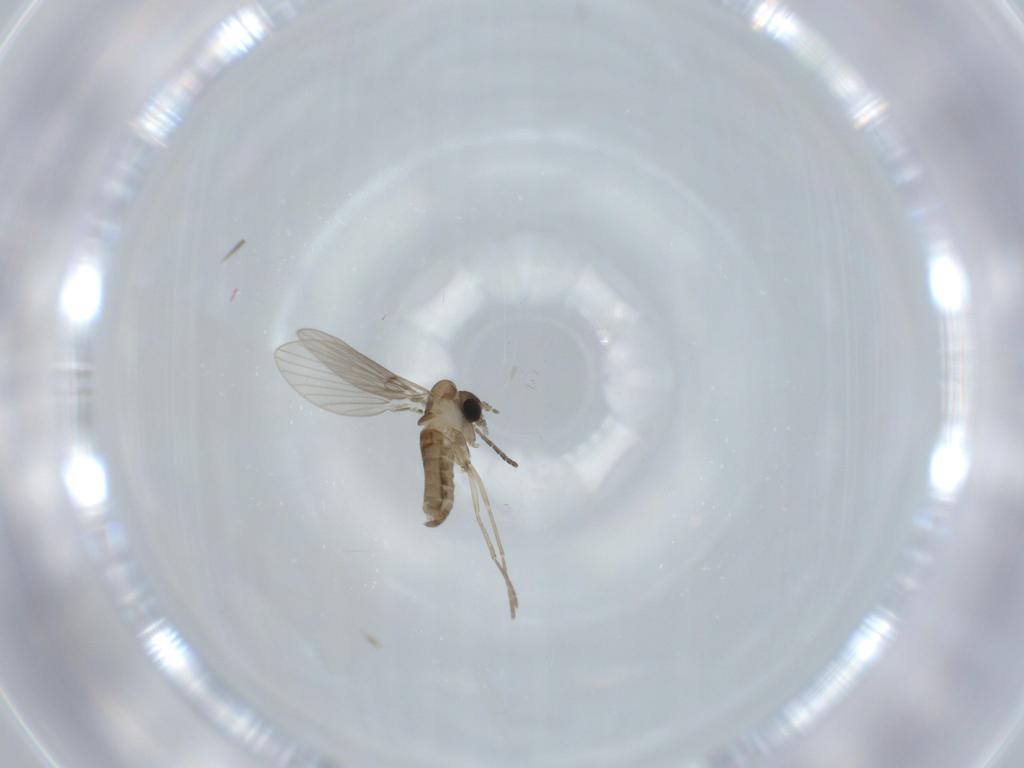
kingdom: Animalia
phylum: Arthropoda
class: Insecta
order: Diptera
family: Psychodidae
